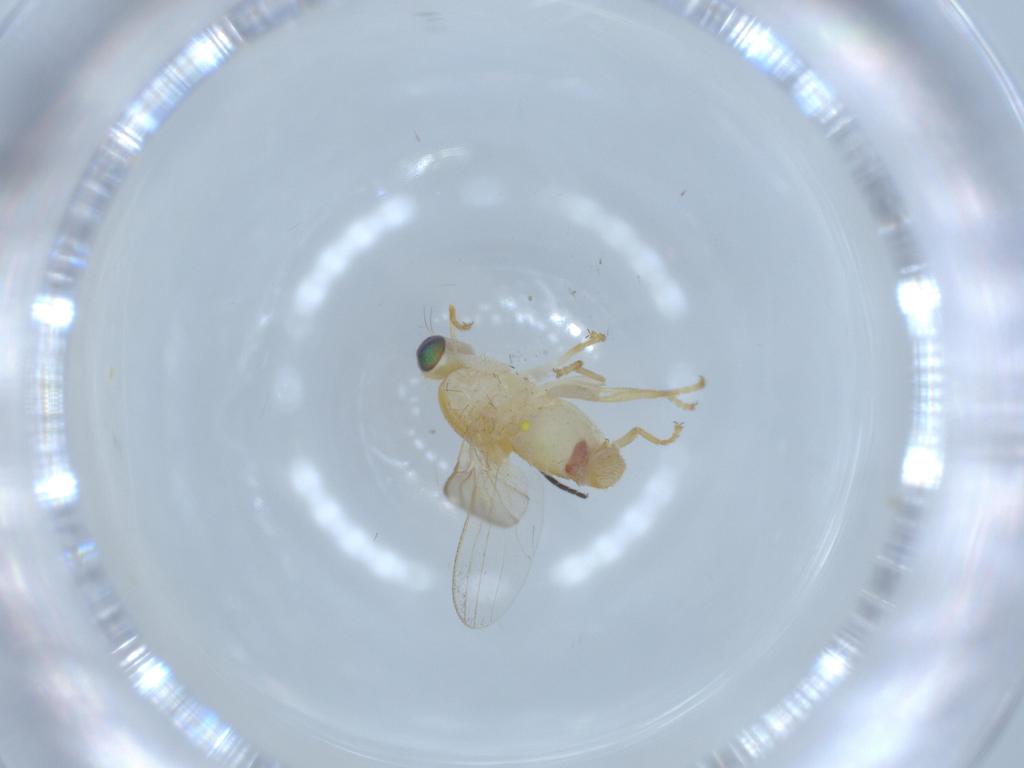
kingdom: Animalia
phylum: Arthropoda
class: Insecta
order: Diptera
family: Chyromyidae
